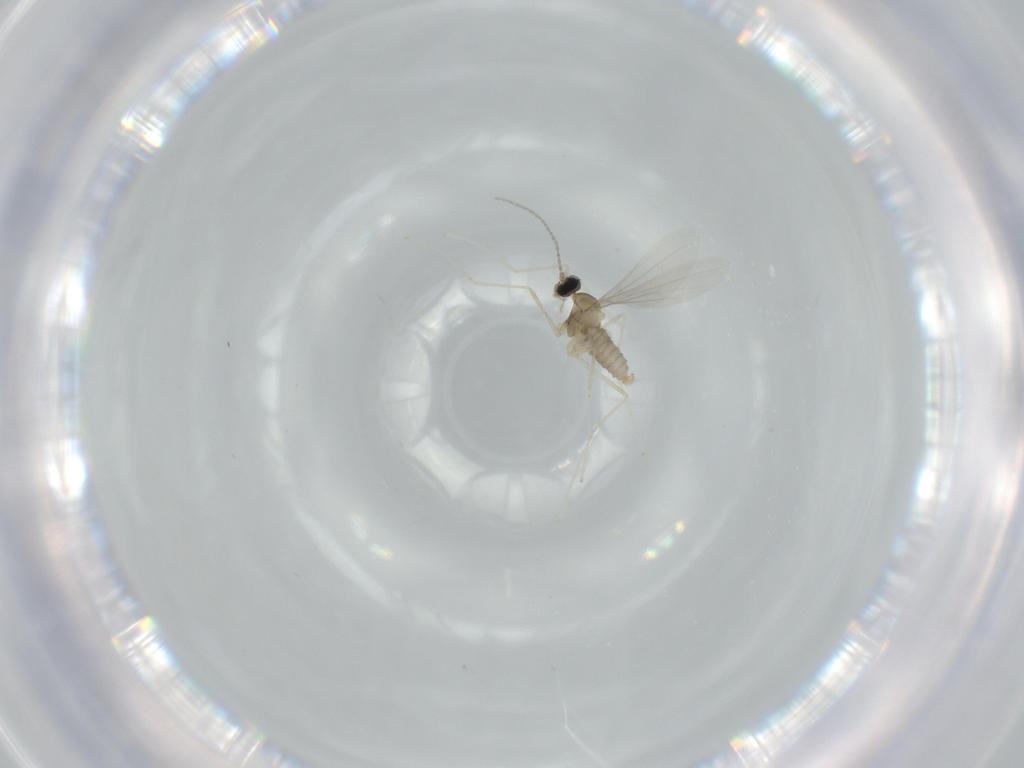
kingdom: Animalia
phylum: Arthropoda
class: Insecta
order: Diptera
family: Cecidomyiidae
